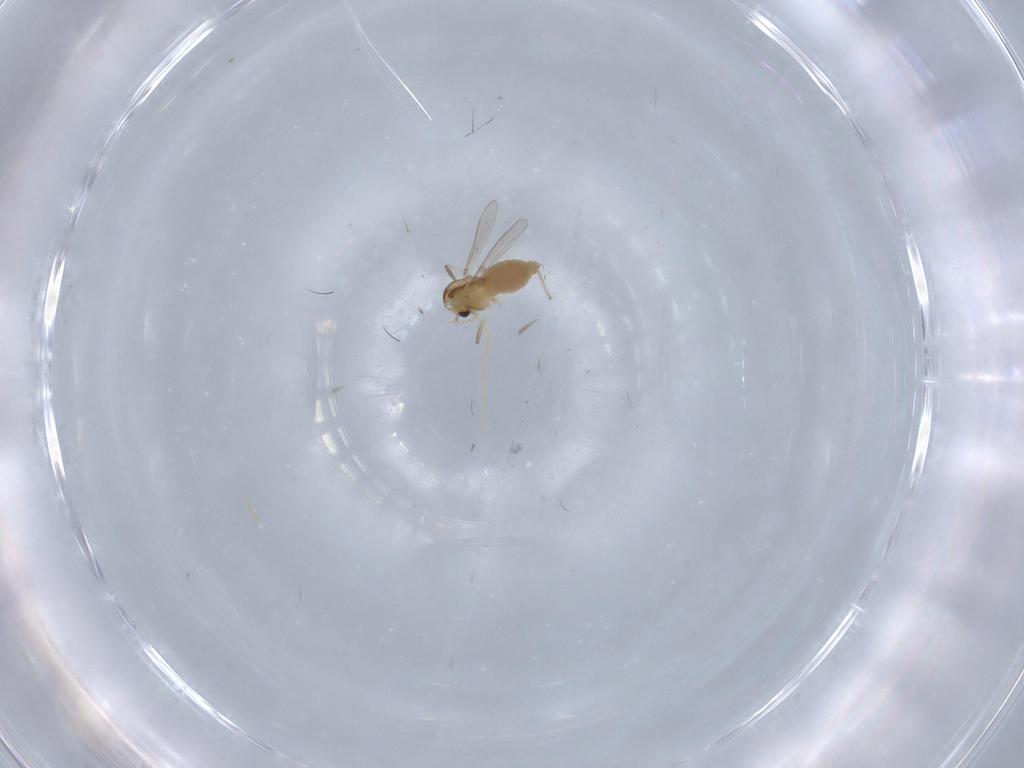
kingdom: Animalia
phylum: Arthropoda
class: Insecta
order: Diptera
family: Chironomidae
